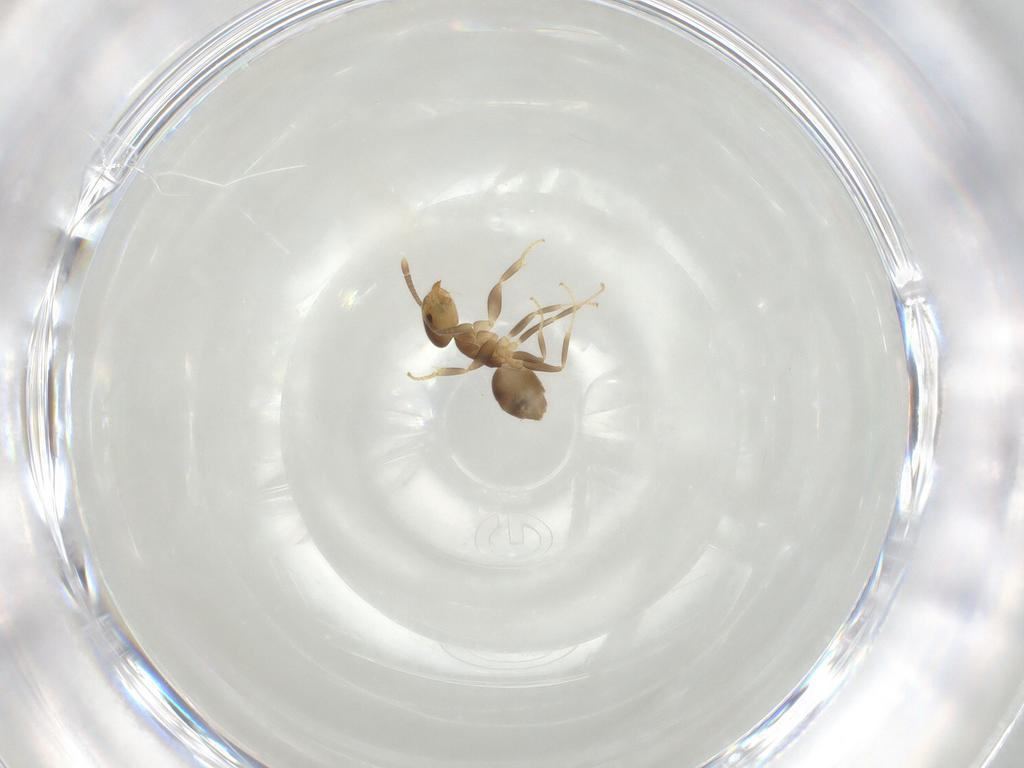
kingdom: Animalia
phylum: Arthropoda
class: Insecta
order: Hymenoptera
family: Formicidae
